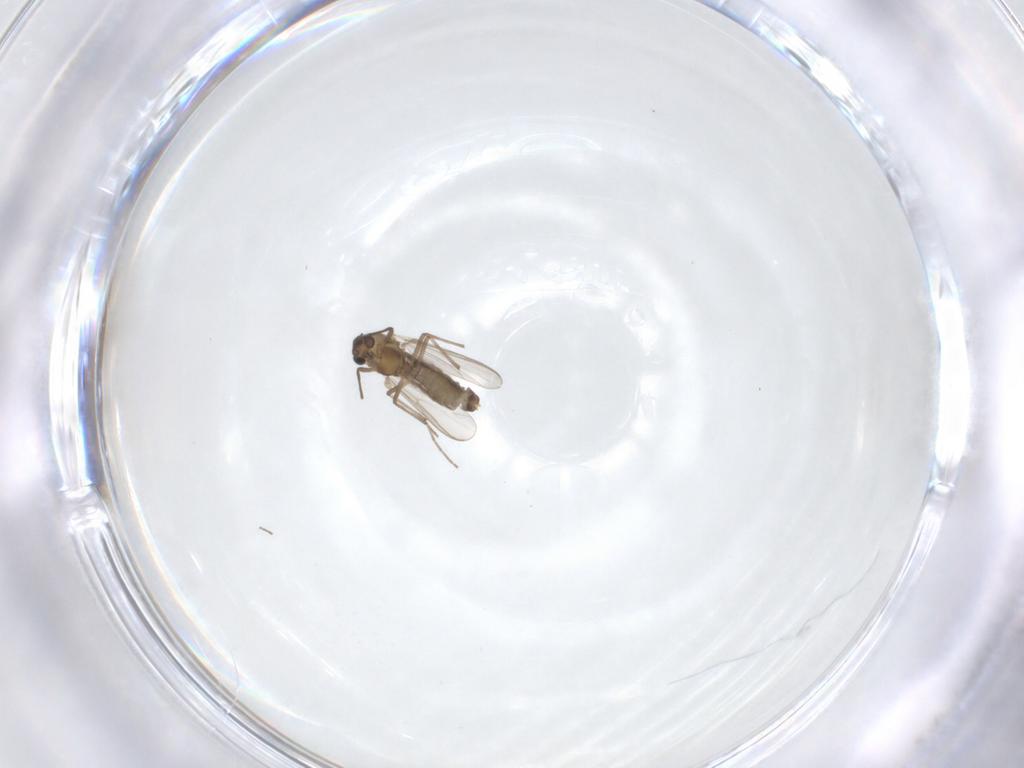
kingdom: Animalia
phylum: Arthropoda
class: Insecta
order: Diptera
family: Chironomidae
